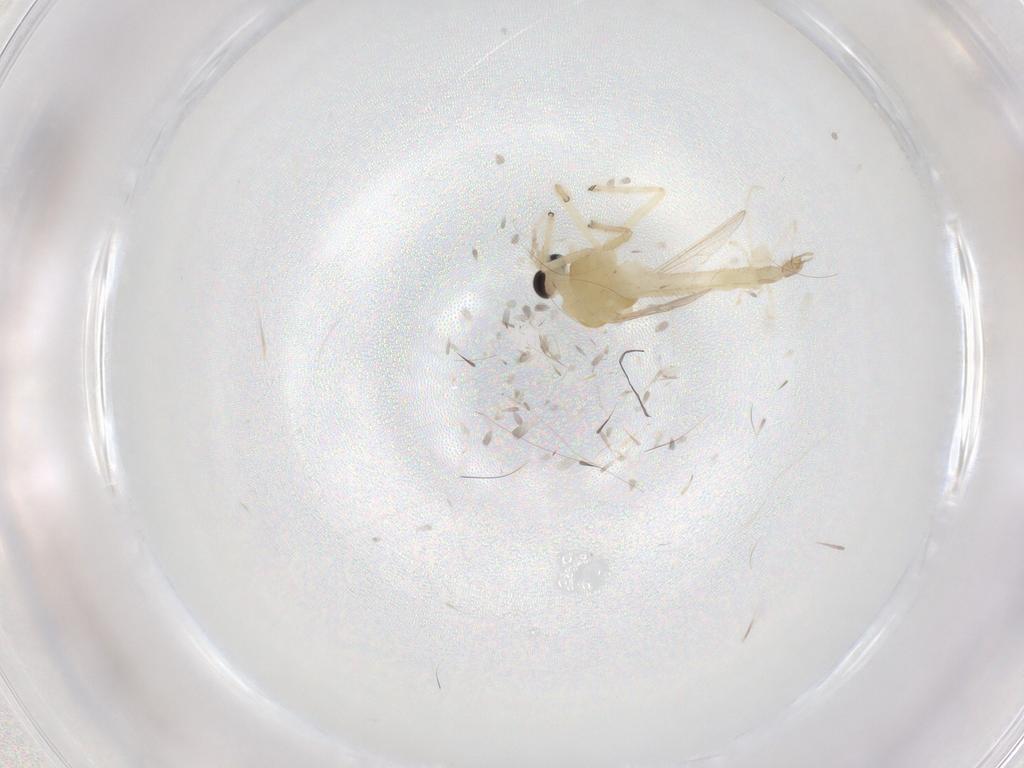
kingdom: Animalia
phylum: Arthropoda
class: Insecta
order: Diptera
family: Chironomidae
